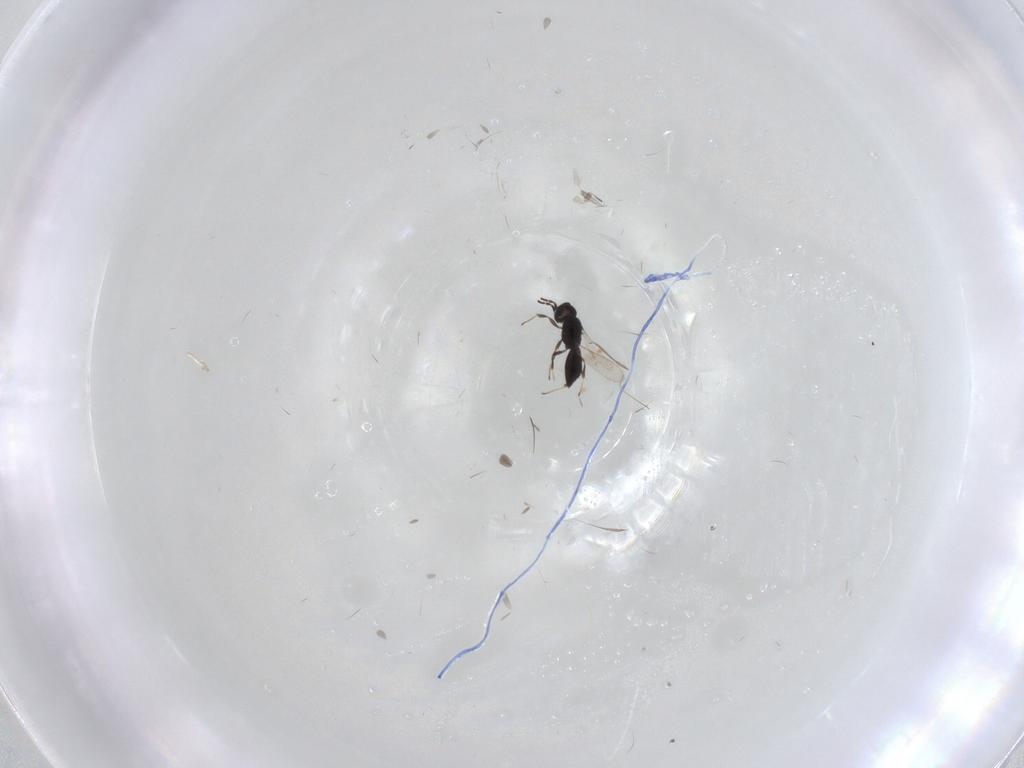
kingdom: Animalia
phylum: Arthropoda
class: Insecta
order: Hymenoptera
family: Scelionidae
